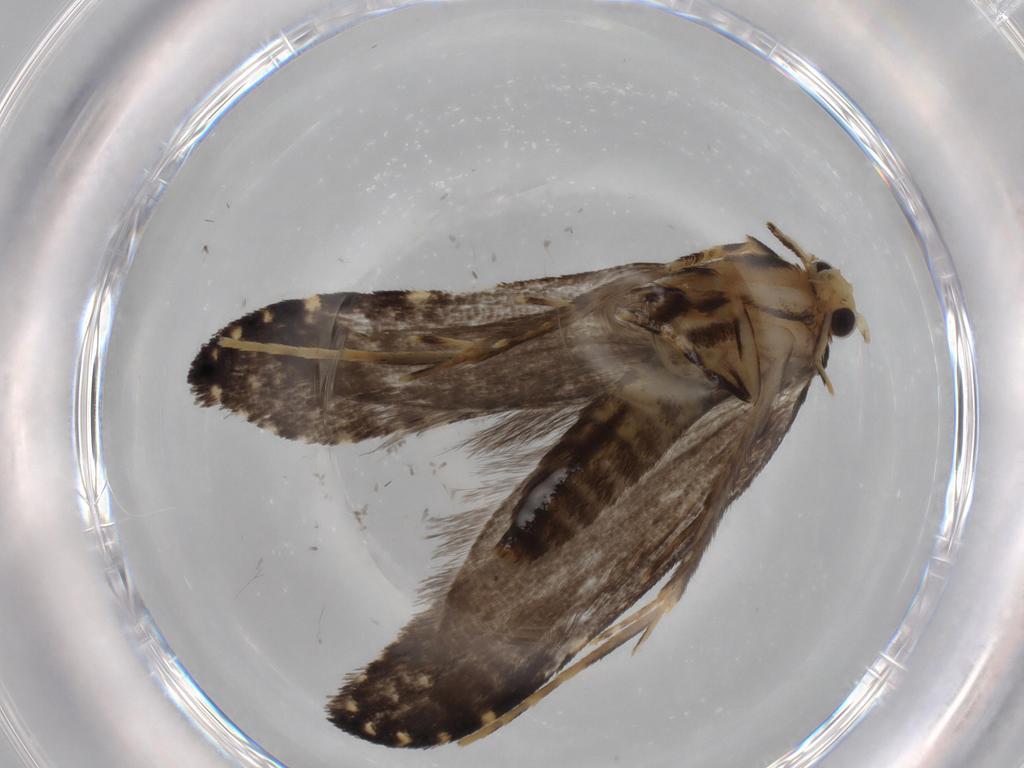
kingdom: Animalia
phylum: Arthropoda
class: Insecta
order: Lepidoptera
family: Tineidae
